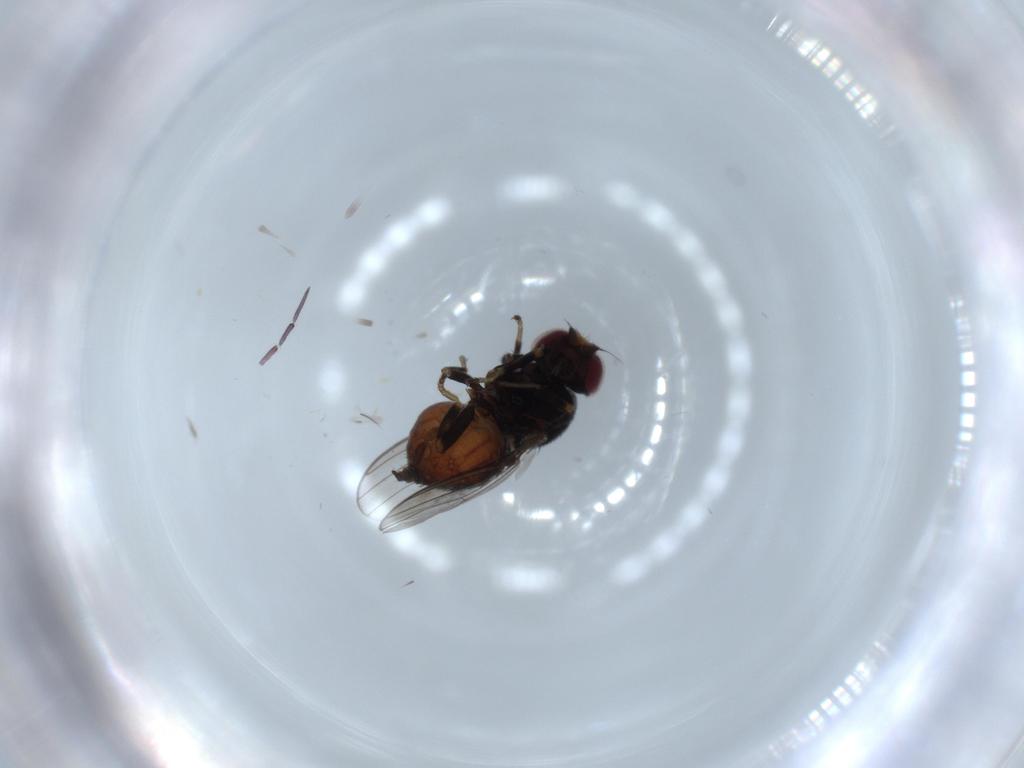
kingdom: Animalia
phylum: Arthropoda
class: Insecta
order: Diptera
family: Chloropidae
